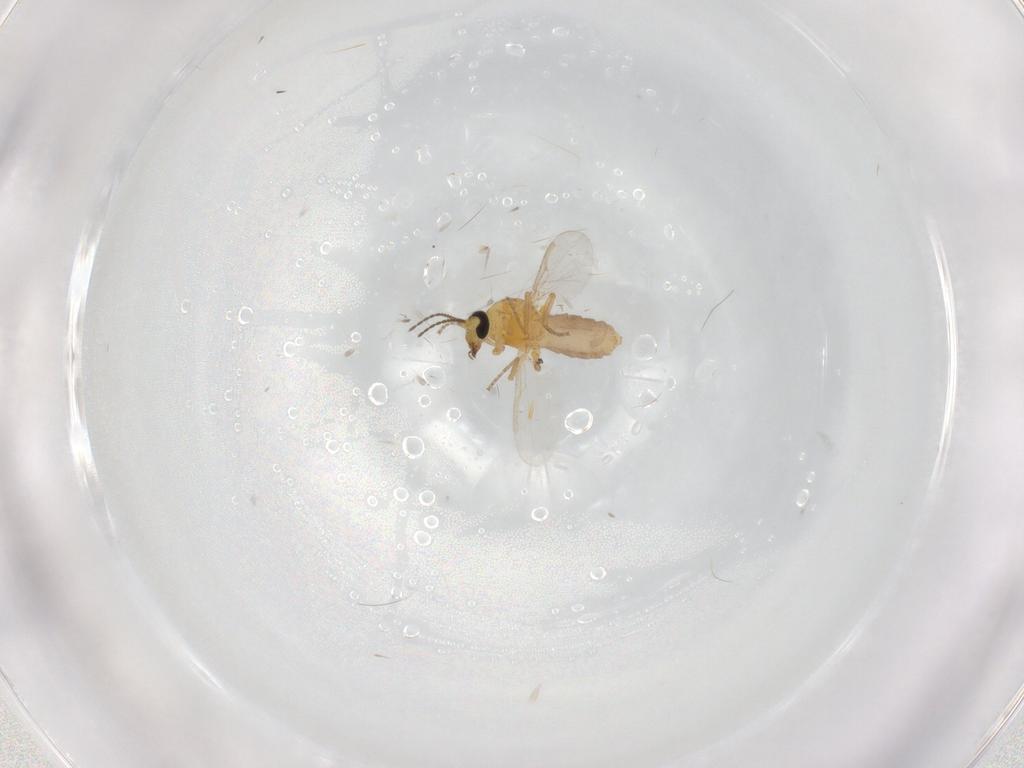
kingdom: Animalia
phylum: Arthropoda
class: Insecta
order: Diptera
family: Ceratopogonidae
